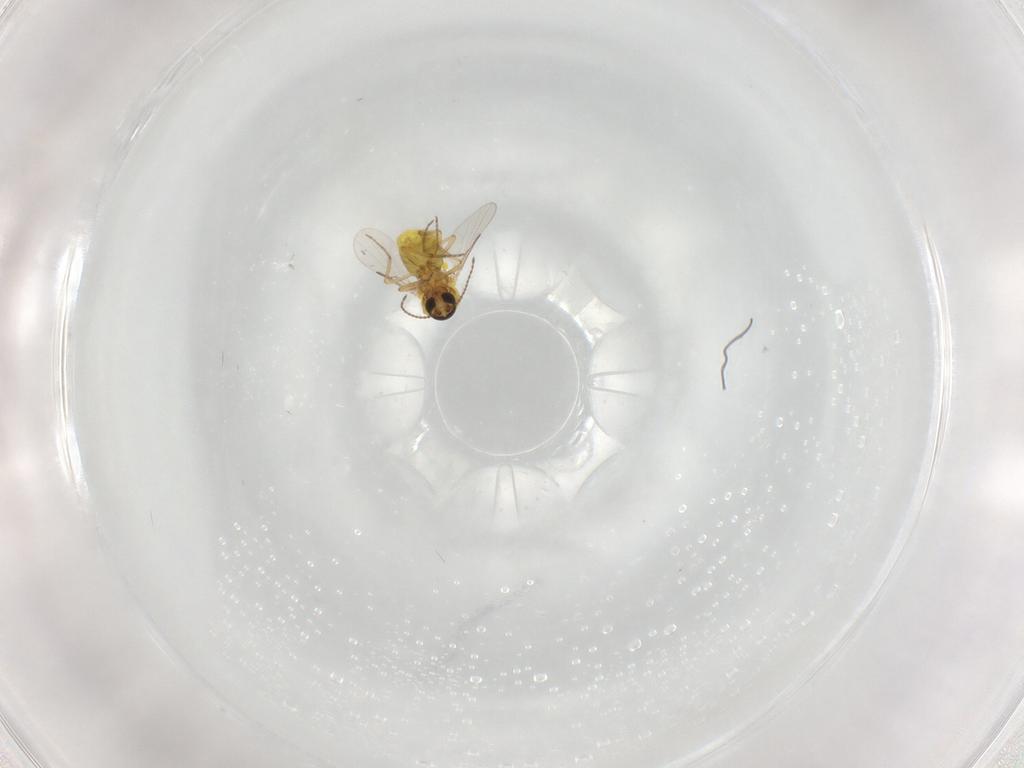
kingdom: Animalia
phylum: Arthropoda
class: Insecta
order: Diptera
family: Ceratopogonidae
